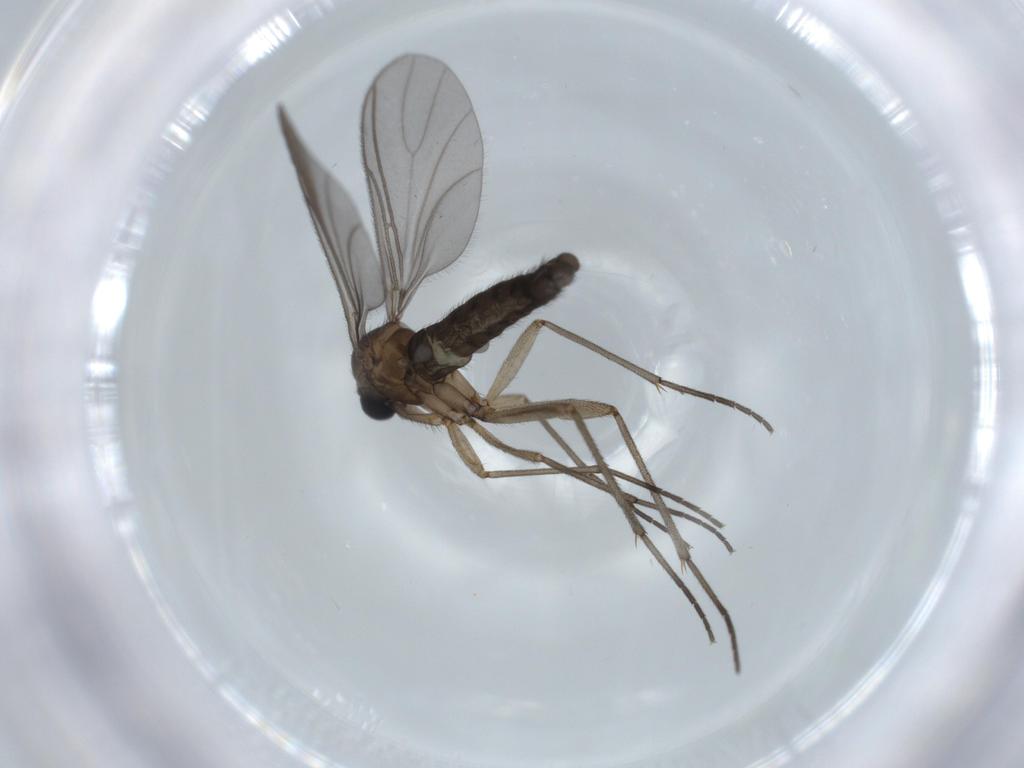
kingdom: Animalia
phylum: Arthropoda
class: Insecta
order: Diptera
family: Sciaridae
